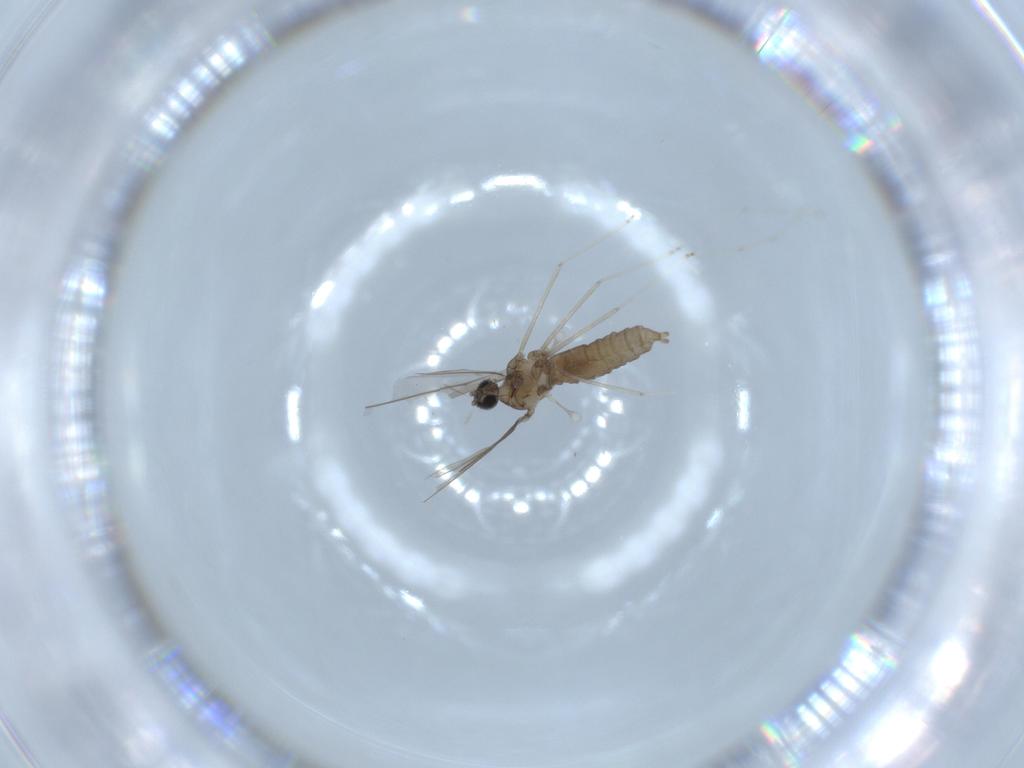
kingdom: Animalia
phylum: Arthropoda
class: Insecta
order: Diptera
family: Cecidomyiidae
